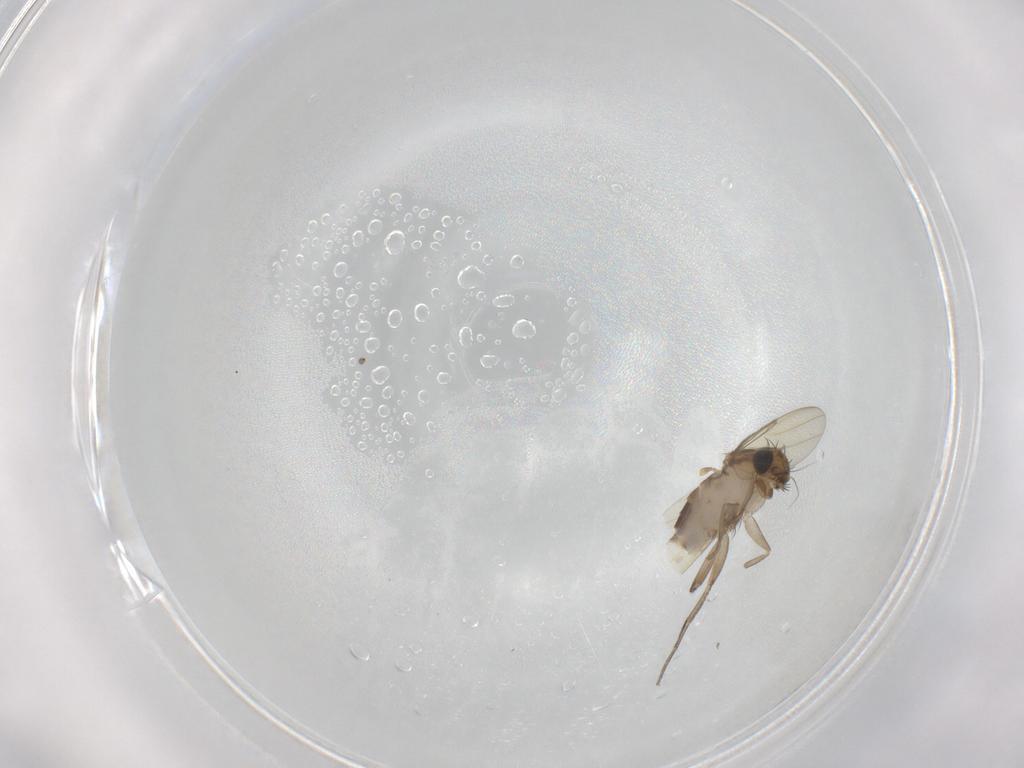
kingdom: Animalia
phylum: Arthropoda
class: Insecta
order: Diptera
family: Phoridae
